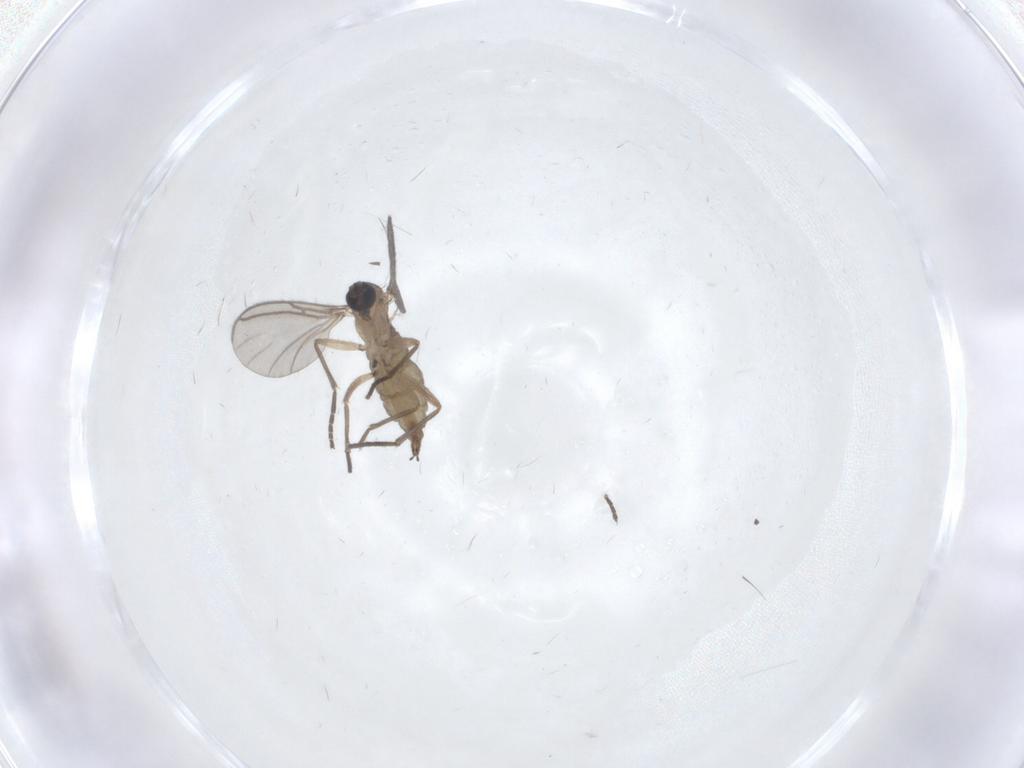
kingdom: Animalia
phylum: Arthropoda
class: Insecta
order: Diptera
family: Sciaridae
